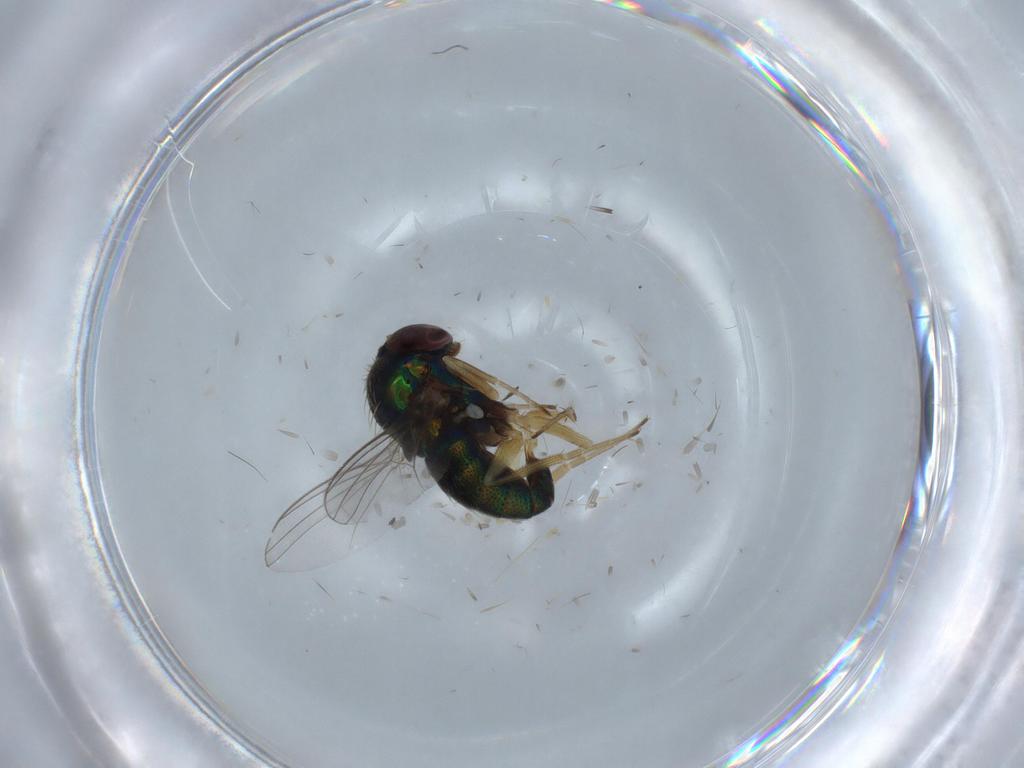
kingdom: Animalia
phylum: Arthropoda
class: Insecta
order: Diptera
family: Dolichopodidae
